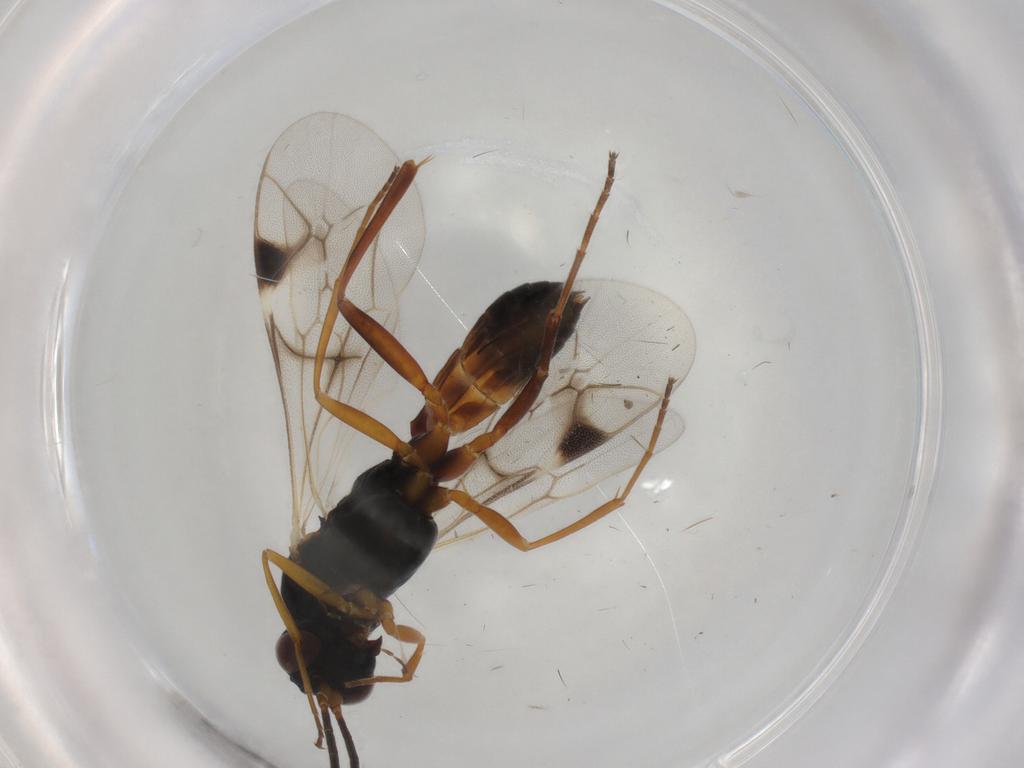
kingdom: Animalia
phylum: Arthropoda
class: Insecta
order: Hymenoptera
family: Ichneumonidae
